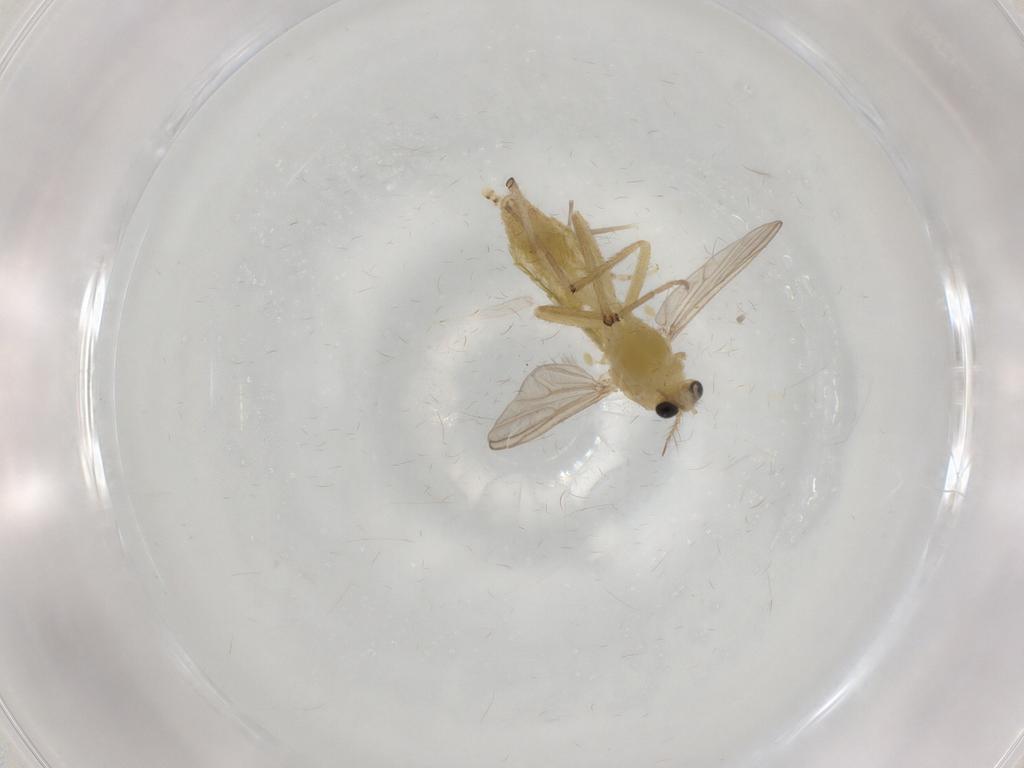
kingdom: Animalia
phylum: Arthropoda
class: Insecta
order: Diptera
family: Chironomidae
